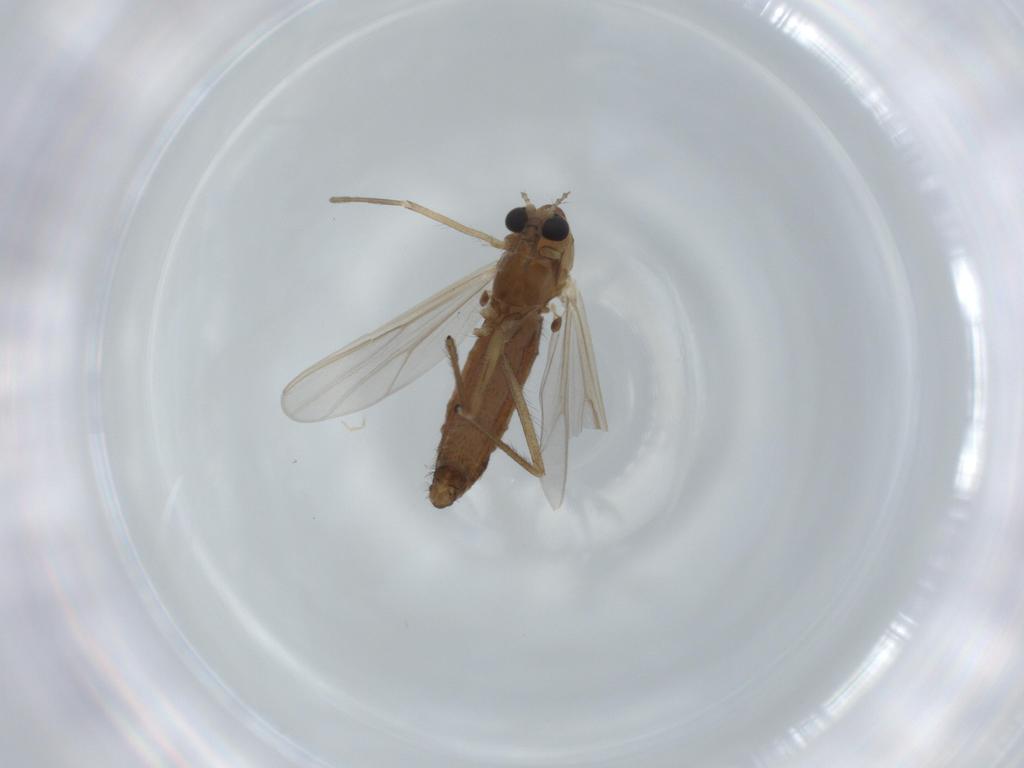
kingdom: Animalia
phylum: Arthropoda
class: Insecta
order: Diptera
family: Chironomidae
